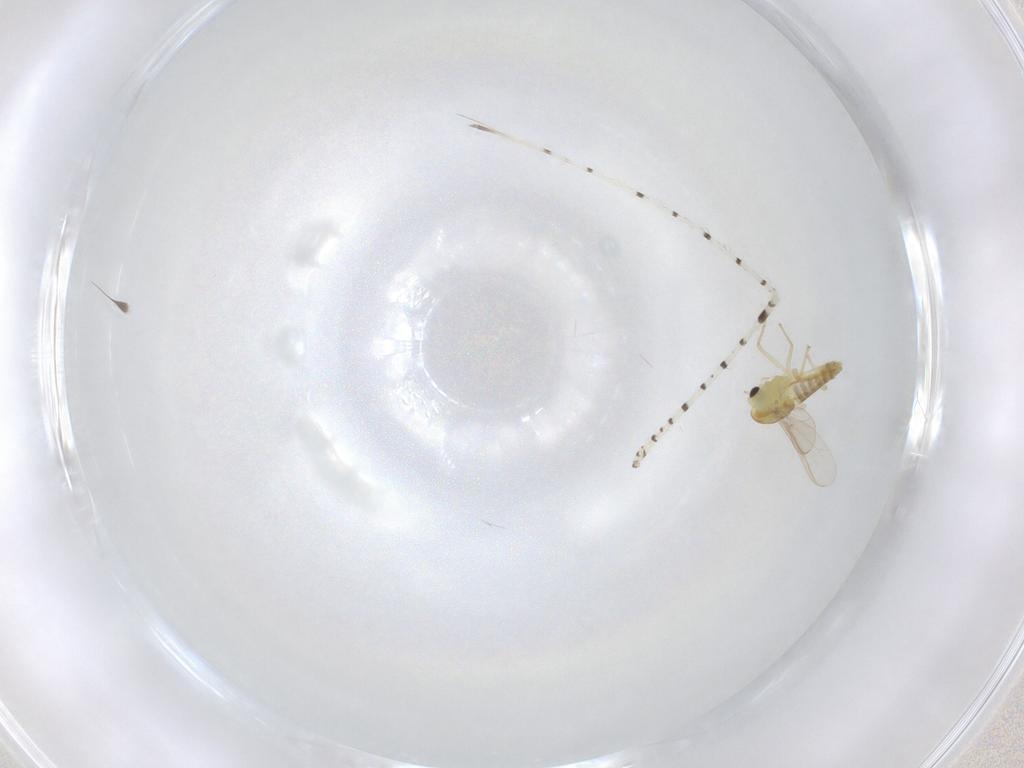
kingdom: Animalia
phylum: Arthropoda
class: Insecta
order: Diptera
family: Chironomidae
